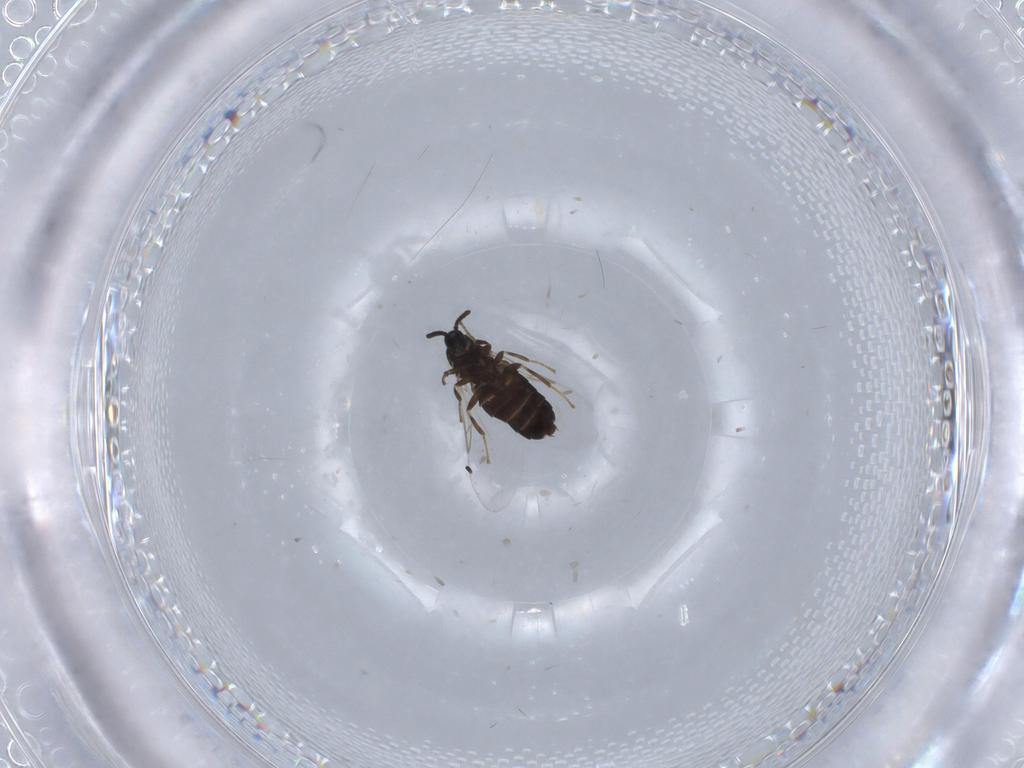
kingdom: Animalia
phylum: Arthropoda
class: Insecta
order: Diptera
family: Scatopsidae
